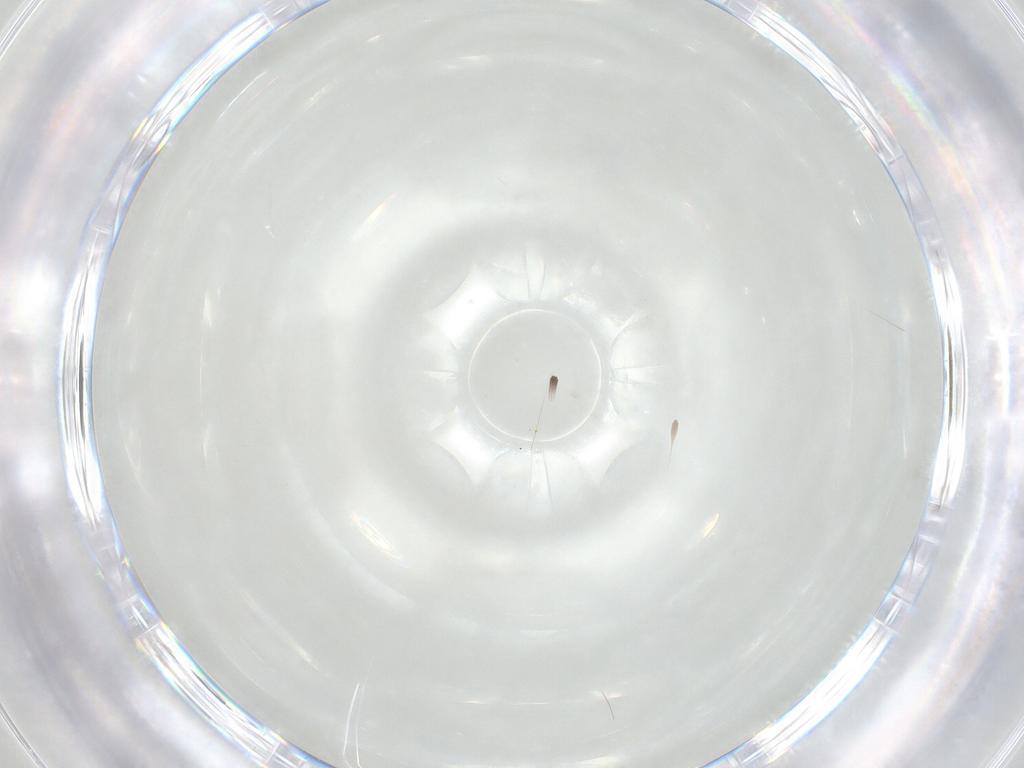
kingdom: Animalia
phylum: Arthropoda
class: Insecta
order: Diptera
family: Ceratopogonidae
